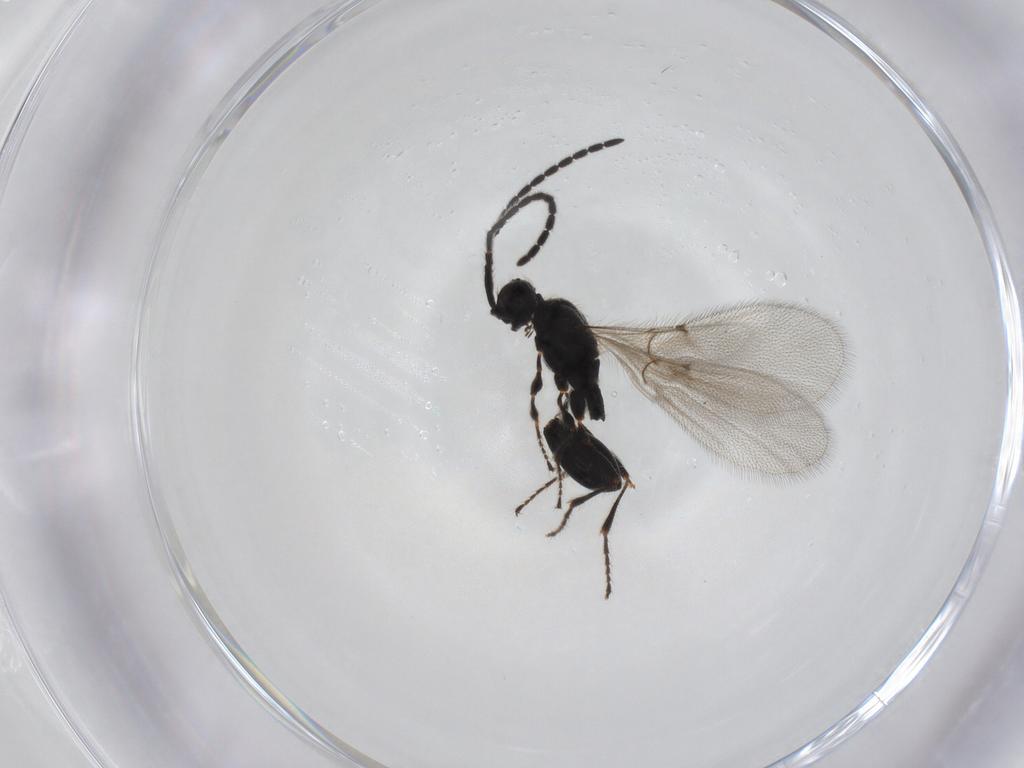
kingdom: Animalia
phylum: Arthropoda
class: Insecta
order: Hymenoptera
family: Diapriidae
